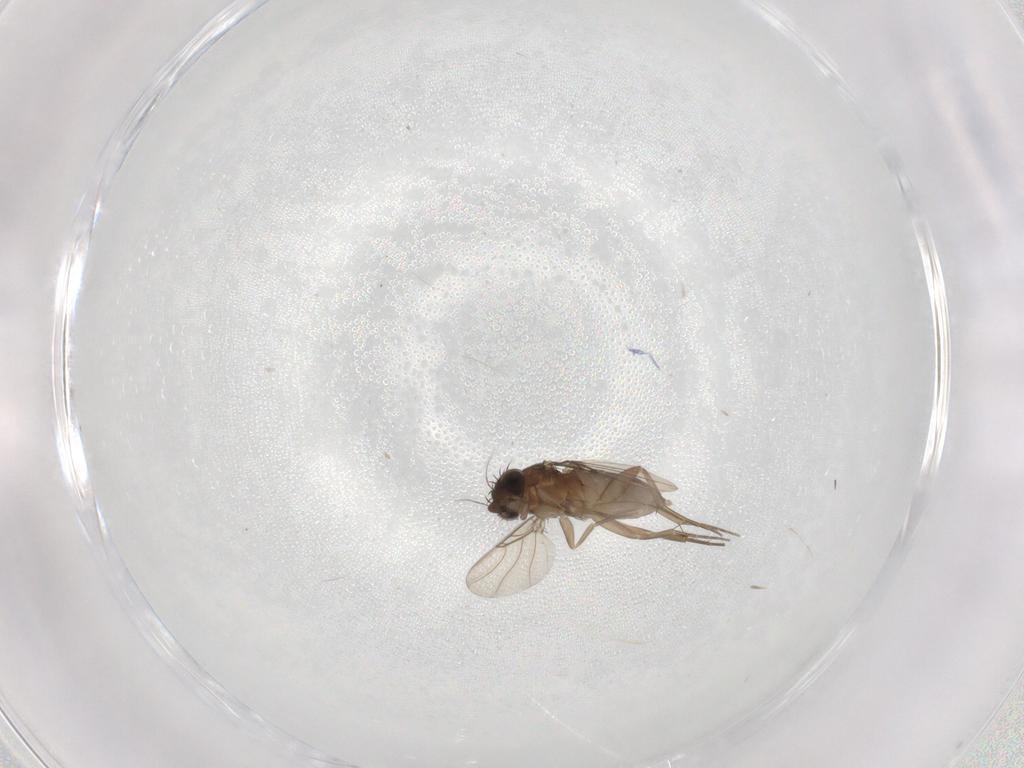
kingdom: Animalia
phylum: Arthropoda
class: Insecta
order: Diptera
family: Phoridae
